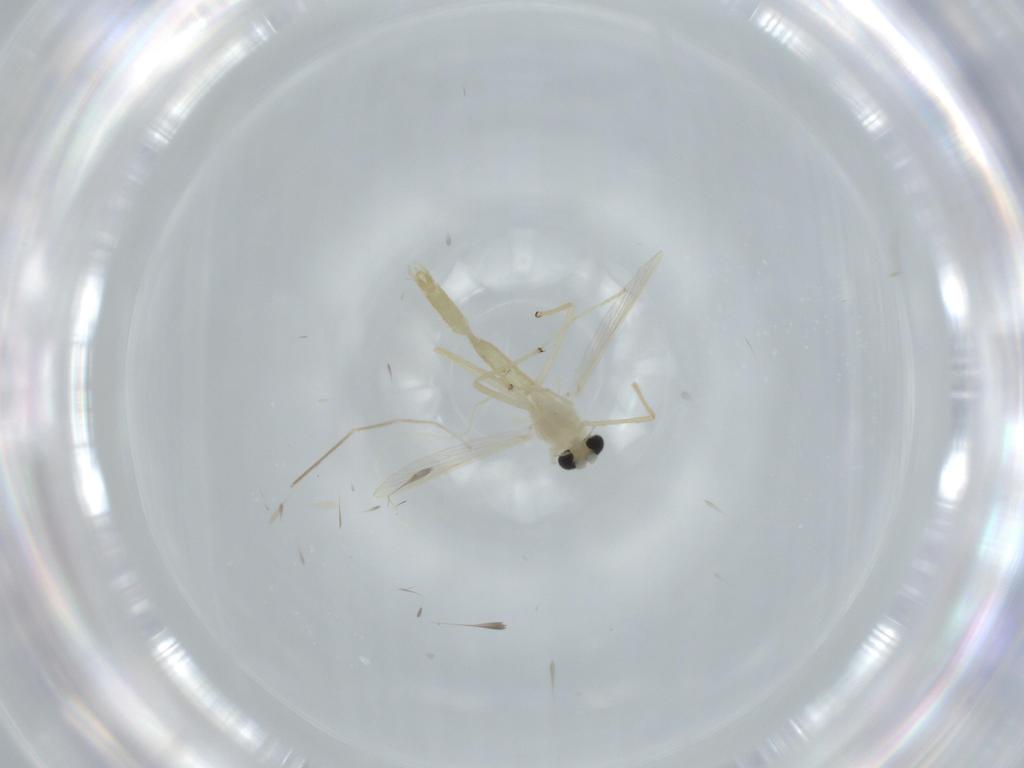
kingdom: Animalia
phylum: Arthropoda
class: Insecta
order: Diptera
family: Chironomidae
